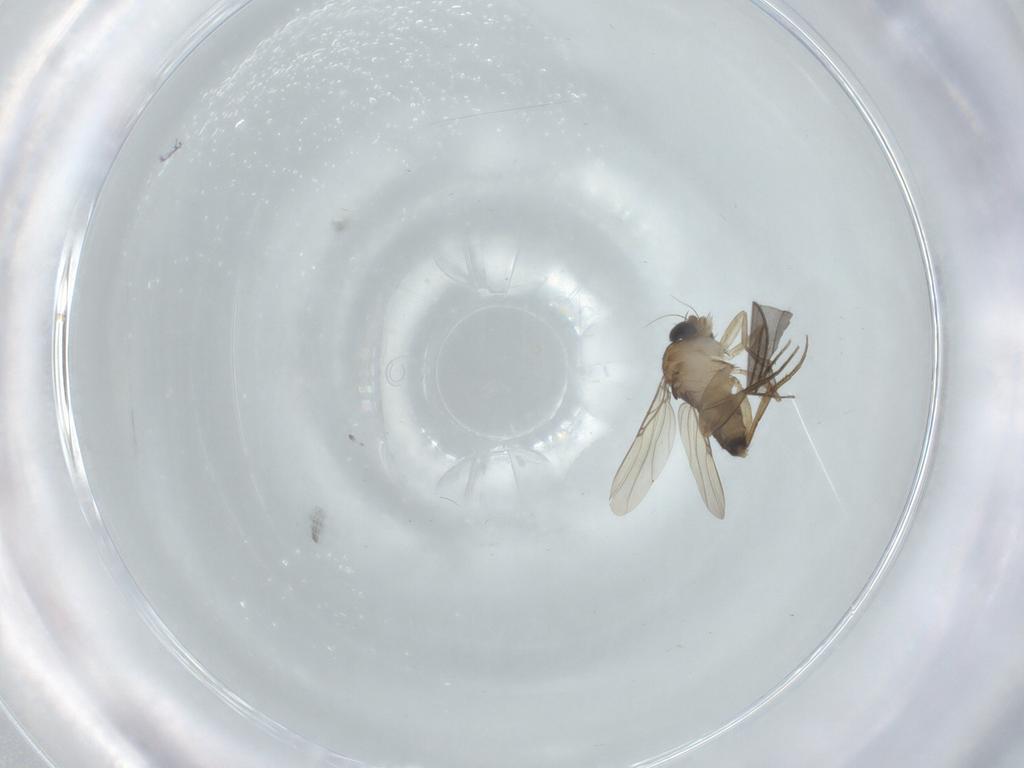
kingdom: Animalia
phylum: Arthropoda
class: Insecta
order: Diptera
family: Phoridae
